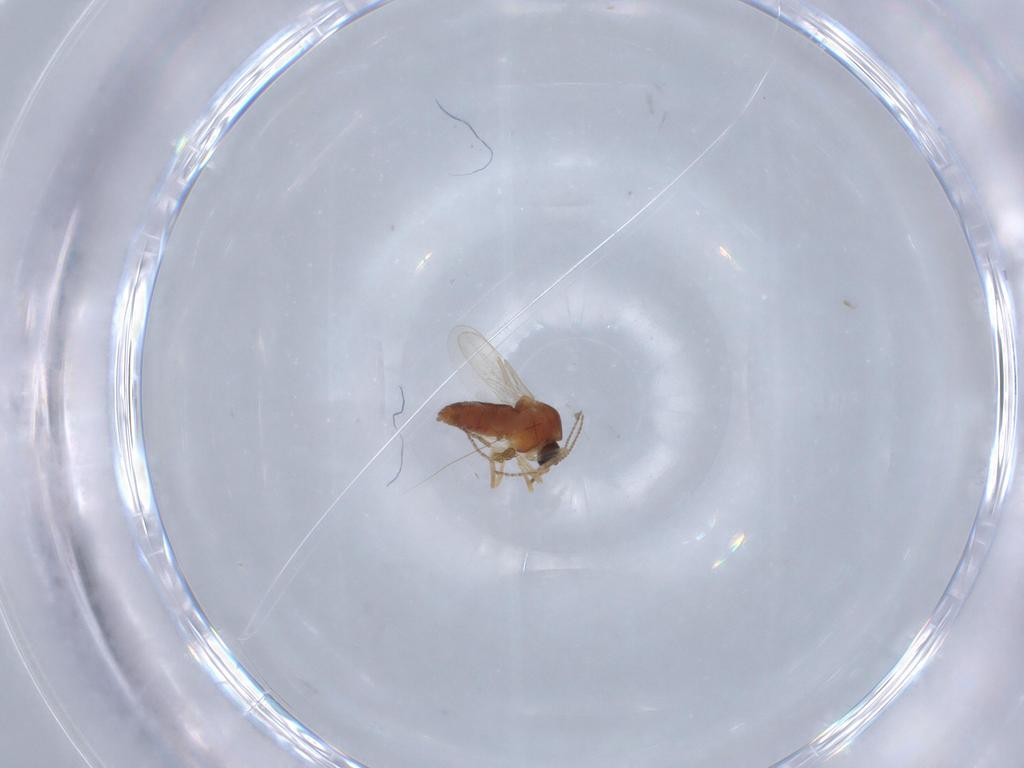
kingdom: Animalia
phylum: Arthropoda
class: Insecta
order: Diptera
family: Ceratopogonidae
